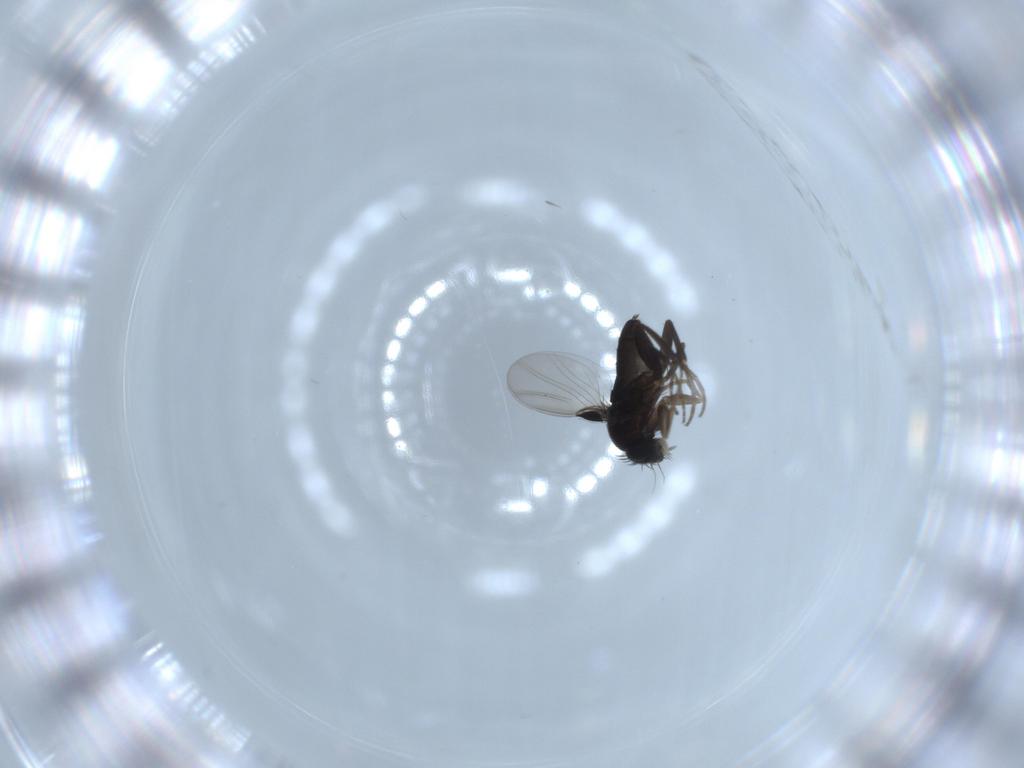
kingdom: Animalia
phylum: Arthropoda
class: Insecta
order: Diptera
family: Phoridae
